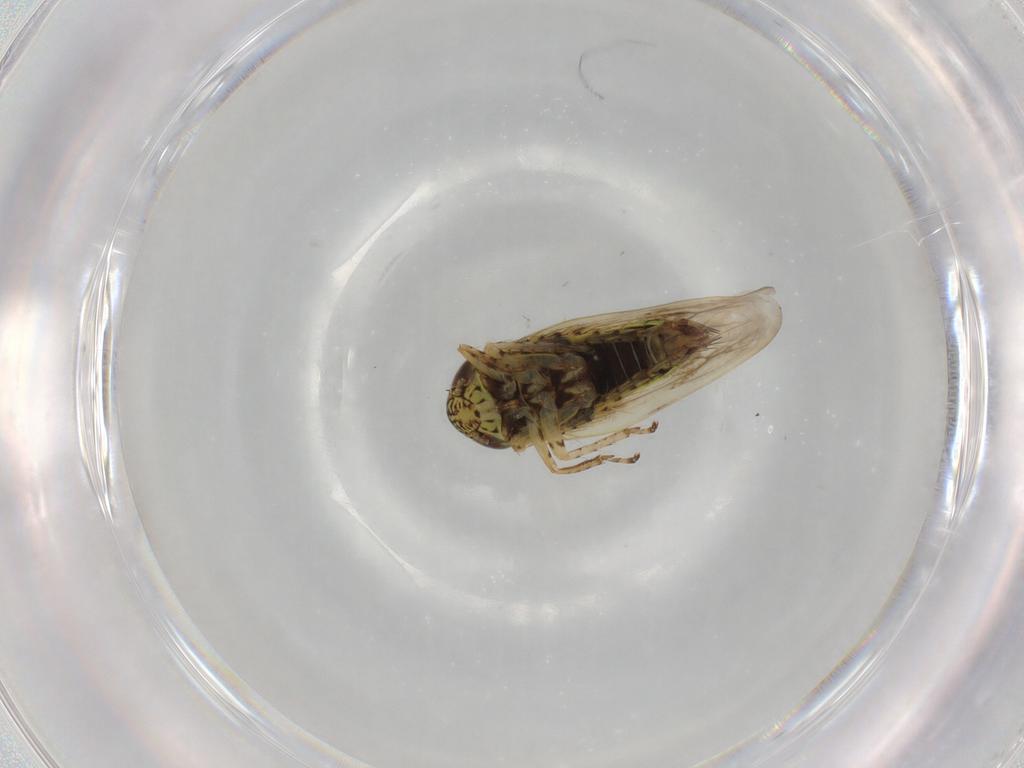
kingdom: Animalia
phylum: Arthropoda
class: Insecta
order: Hemiptera
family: Cicadellidae
